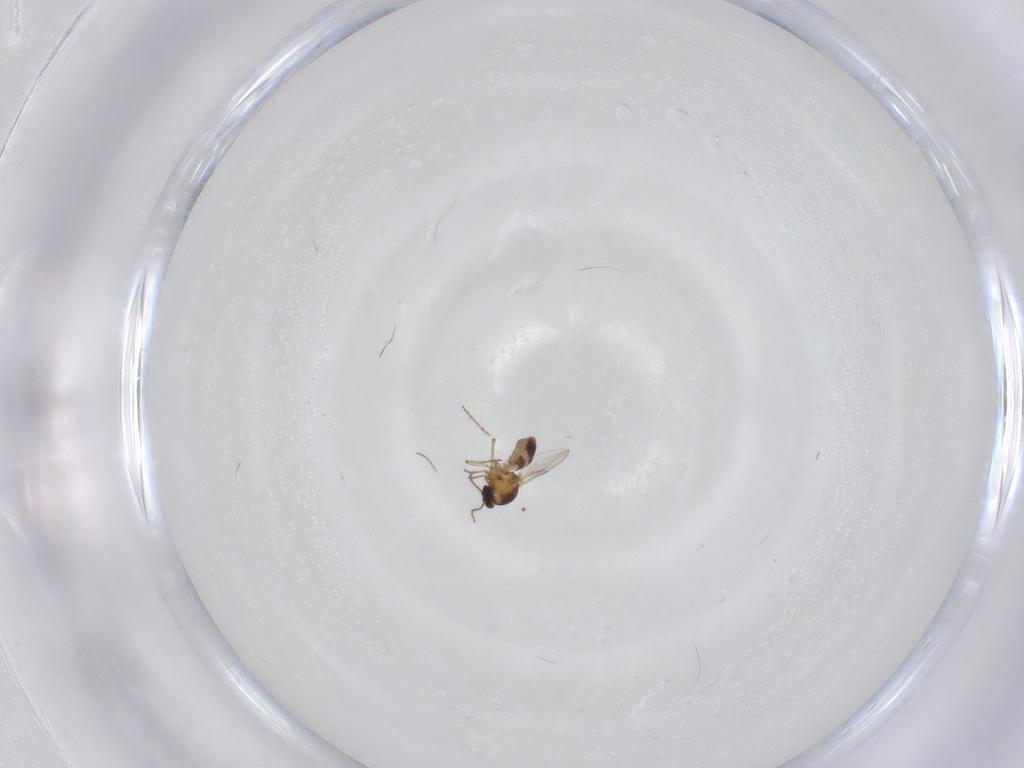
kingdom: Animalia
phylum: Arthropoda
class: Insecta
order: Diptera
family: Ceratopogonidae
